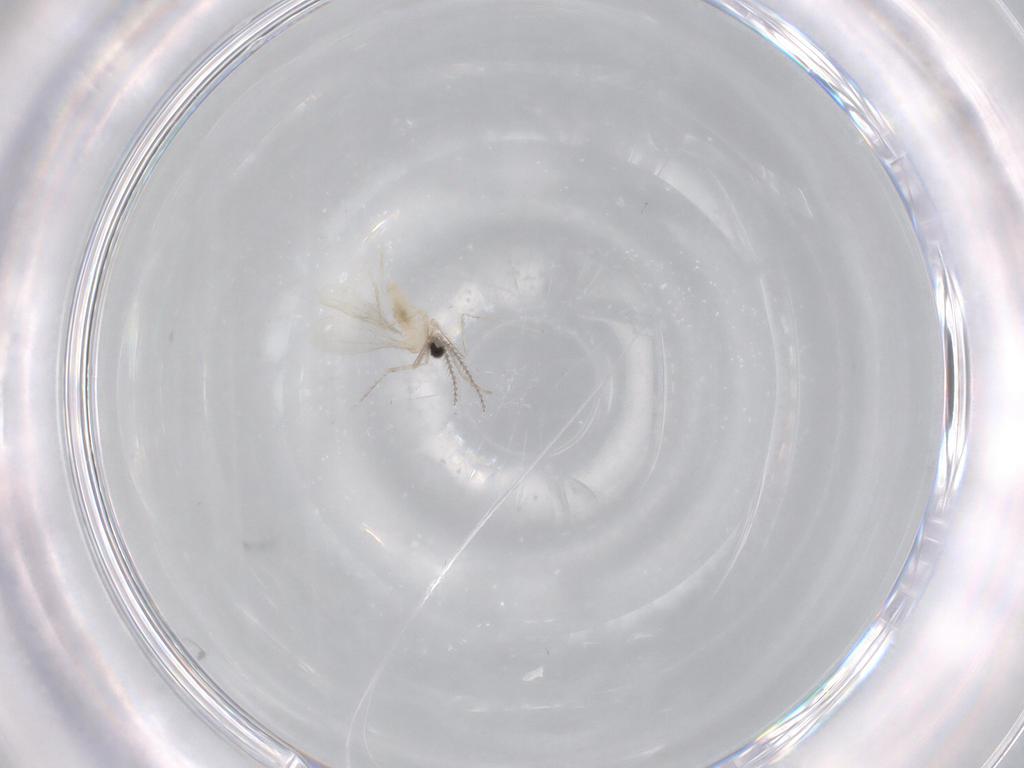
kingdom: Animalia
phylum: Arthropoda
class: Insecta
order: Diptera
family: Cecidomyiidae
